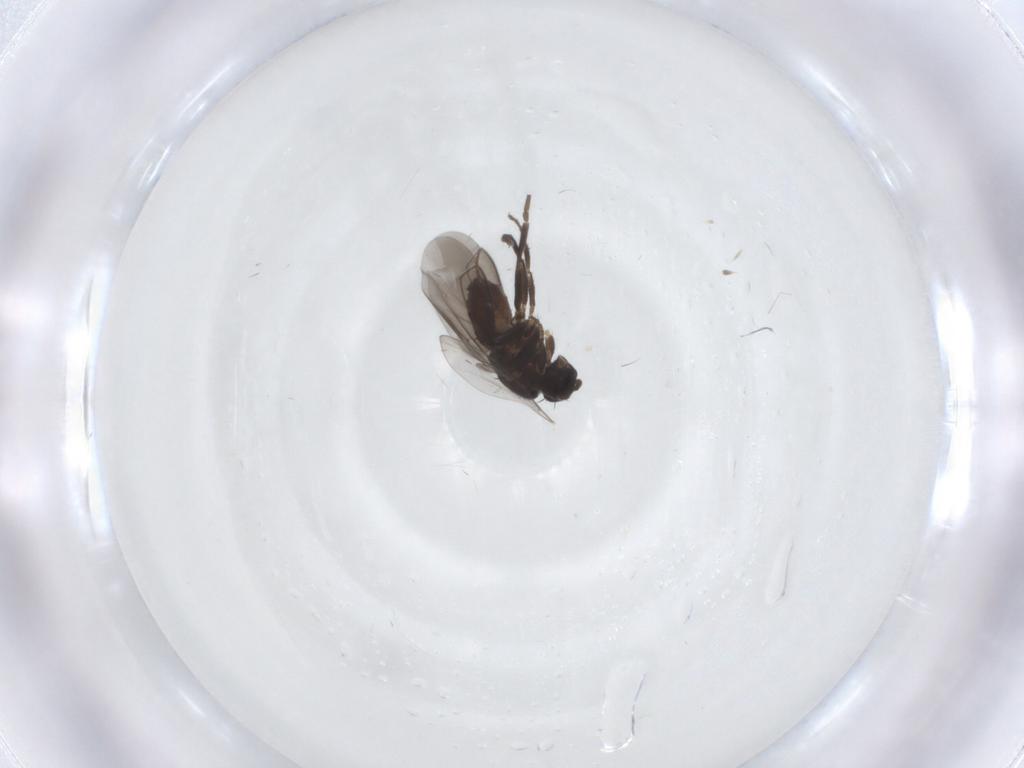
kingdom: Animalia
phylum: Arthropoda
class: Insecta
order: Diptera
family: Sphaeroceridae
